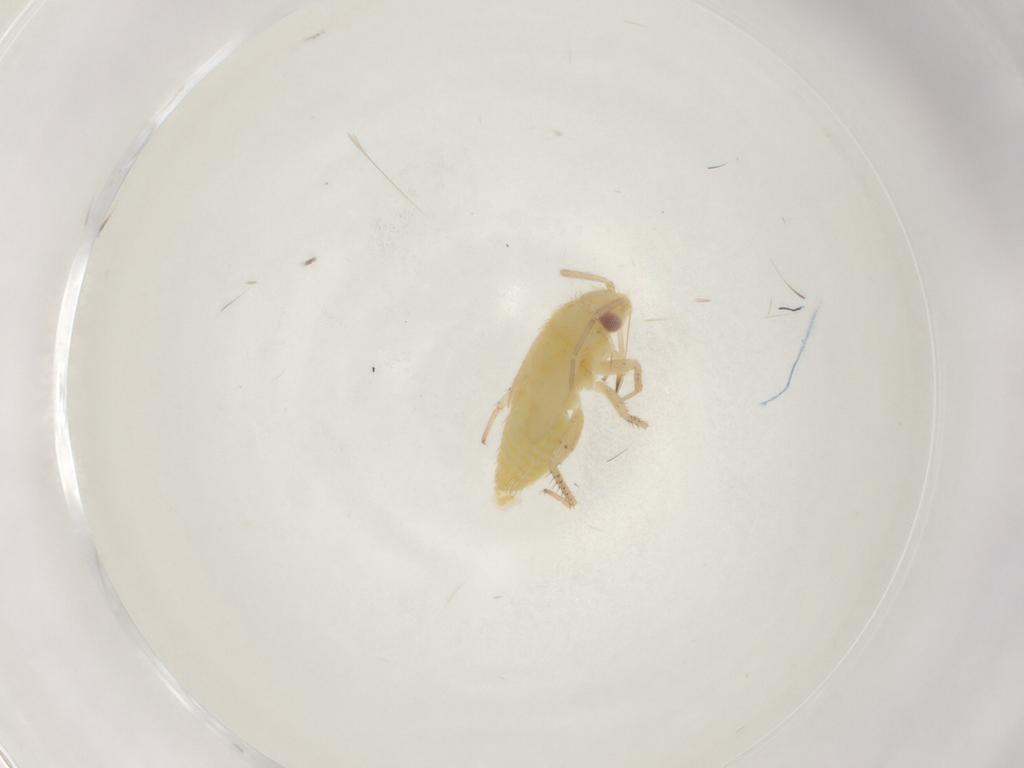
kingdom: Animalia
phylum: Arthropoda
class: Insecta
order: Diptera
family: Chironomidae
